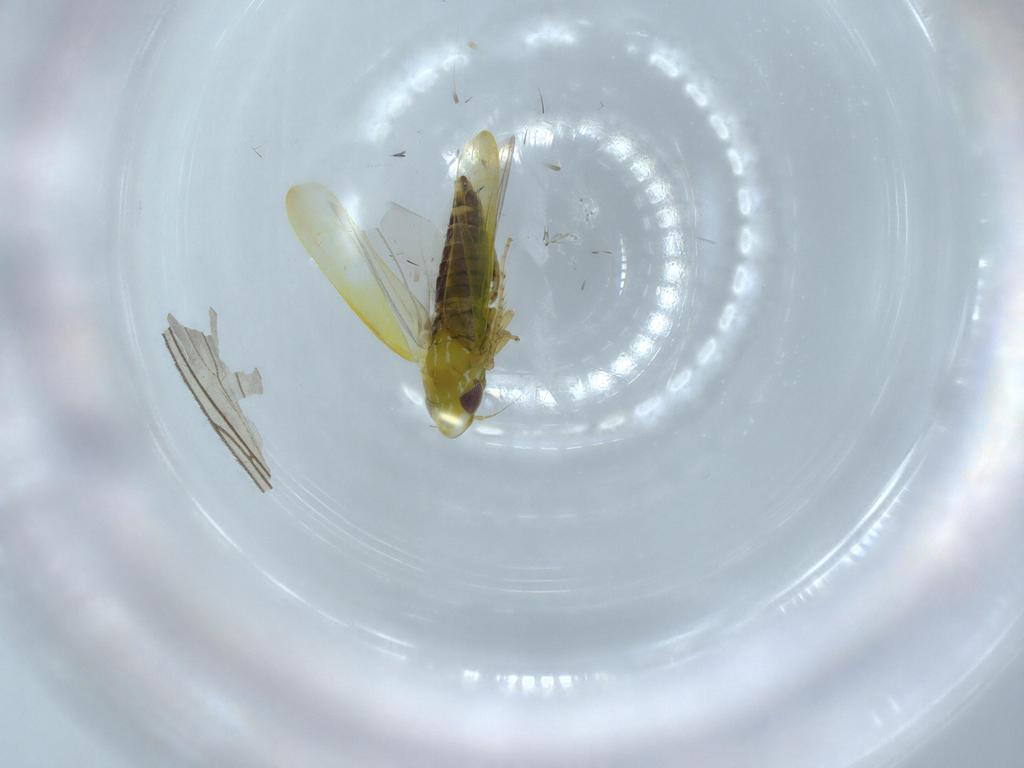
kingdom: Animalia
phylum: Arthropoda
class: Insecta
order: Hemiptera
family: Cicadellidae
